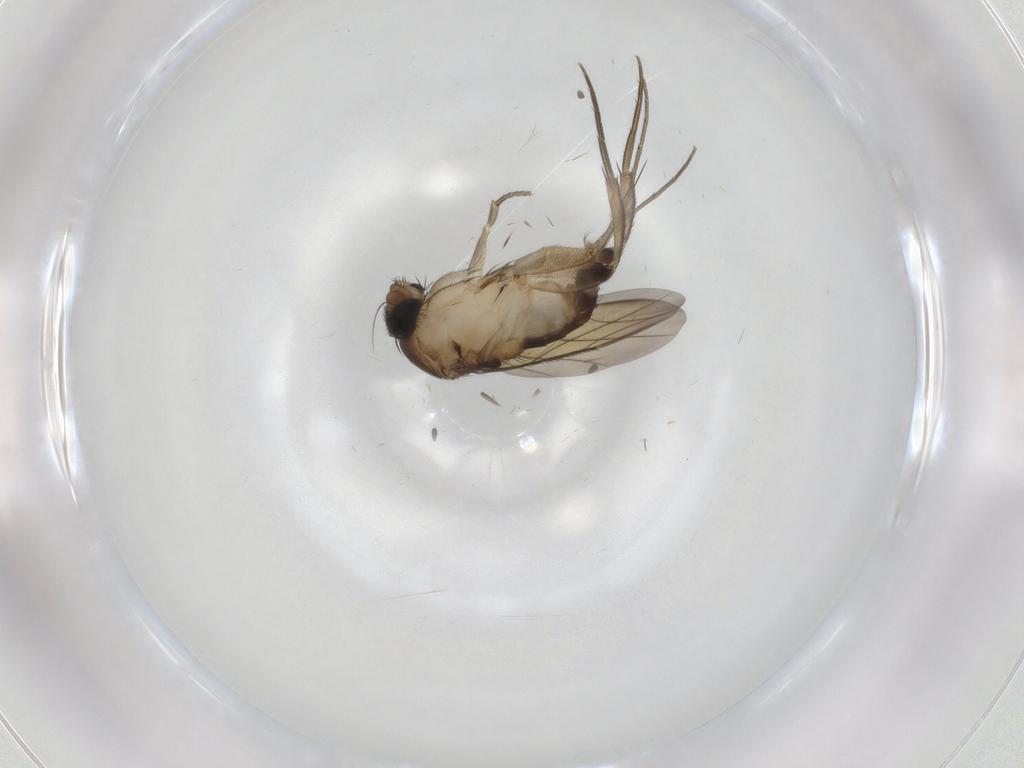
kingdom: Animalia
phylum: Arthropoda
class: Insecta
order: Diptera
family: Phoridae
